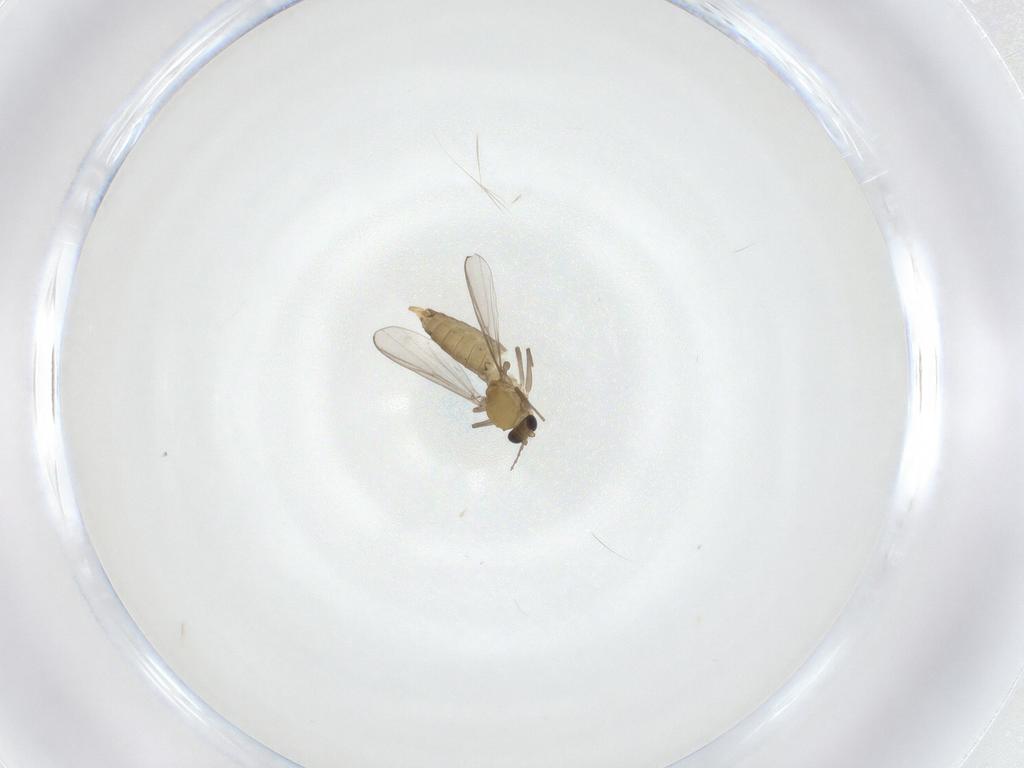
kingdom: Animalia
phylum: Arthropoda
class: Insecta
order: Diptera
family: Chironomidae
